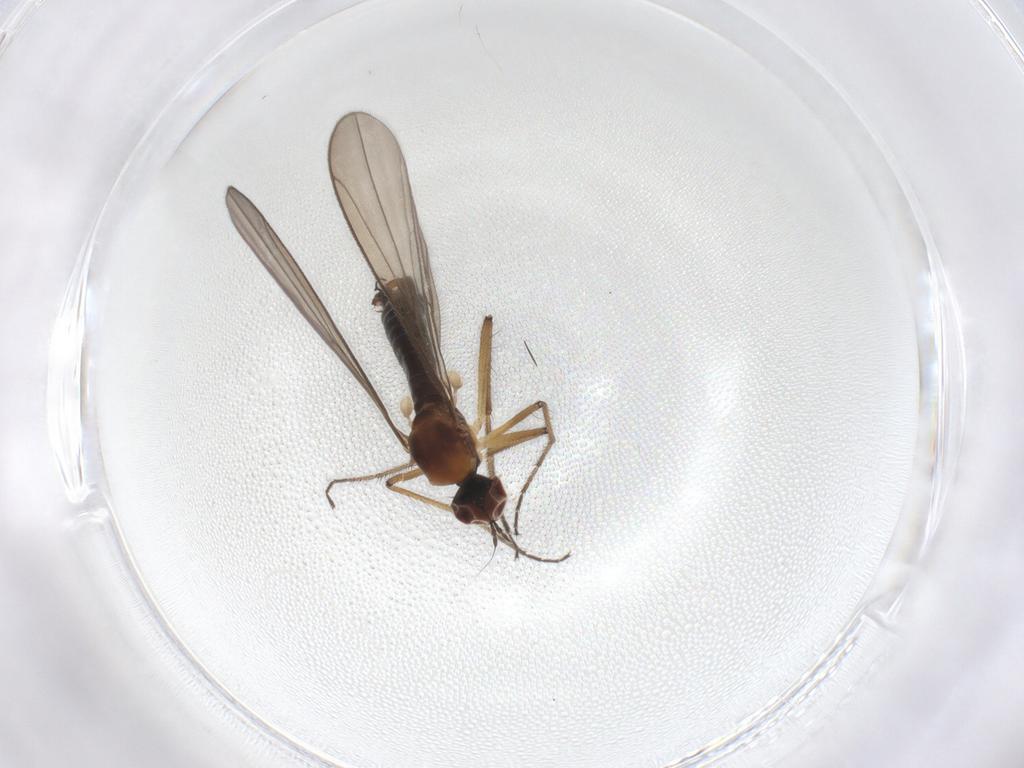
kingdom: Animalia
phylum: Arthropoda
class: Insecta
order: Diptera
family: Hybotidae
